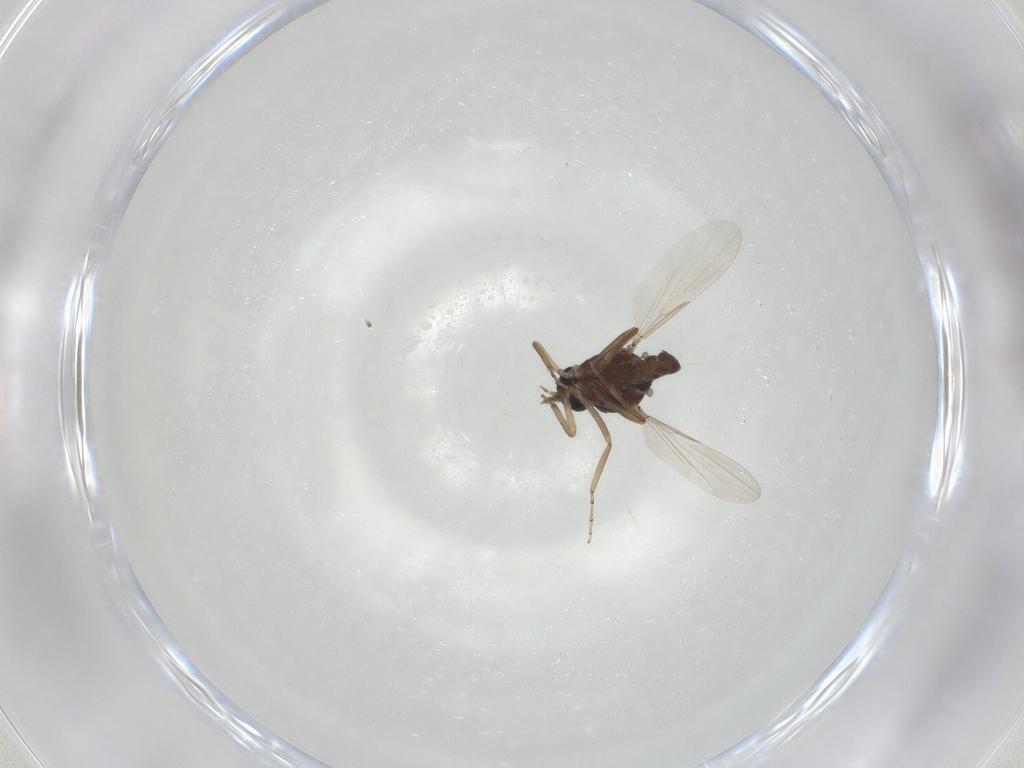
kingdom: Animalia
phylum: Arthropoda
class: Insecta
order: Diptera
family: Ceratopogonidae
